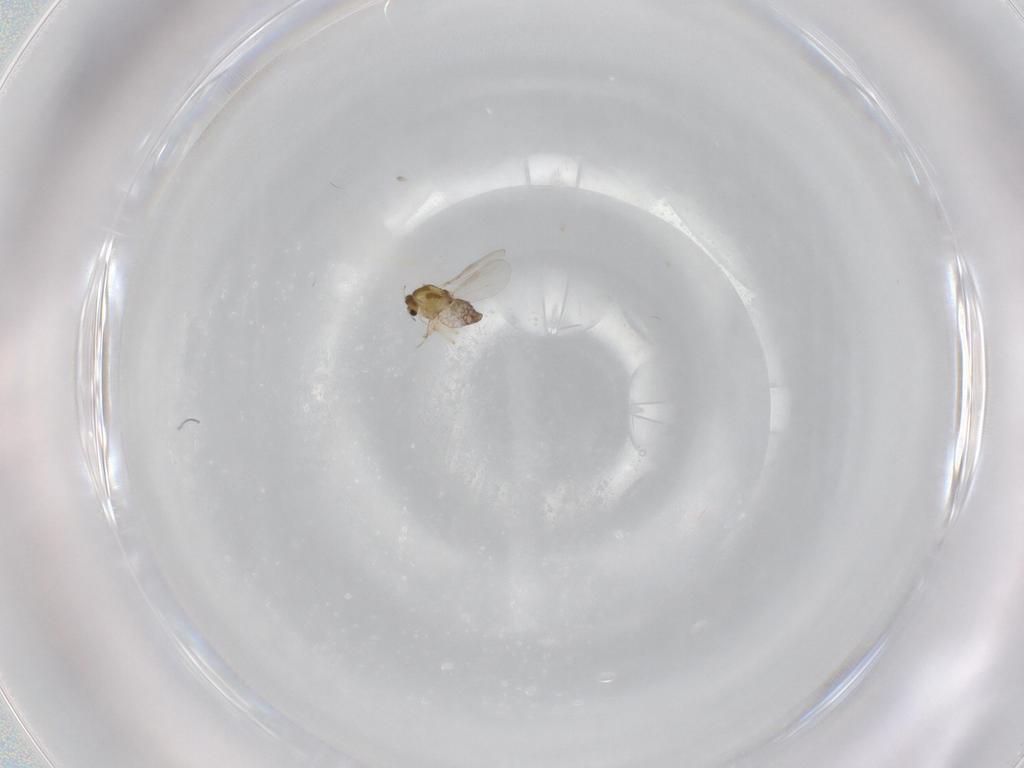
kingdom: Animalia
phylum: Arthropoda
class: Insecta
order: Diptera
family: Chironomidae
